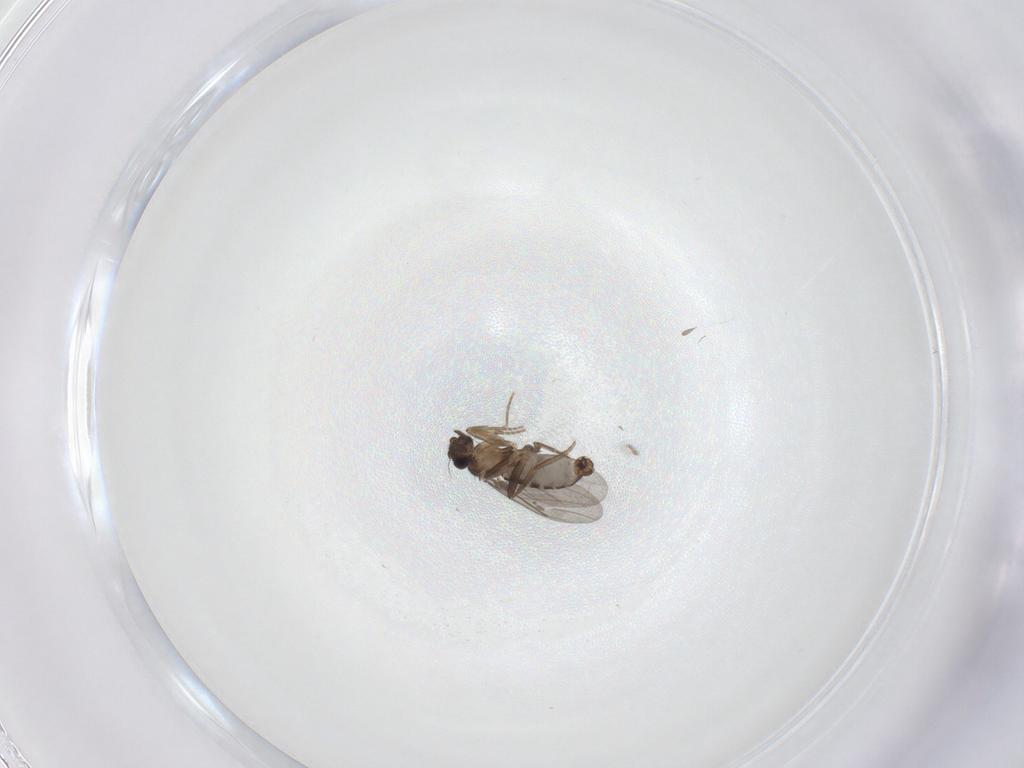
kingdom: Animalia
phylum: Arthropoda
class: Insecta
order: Diptera
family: Phoridae
